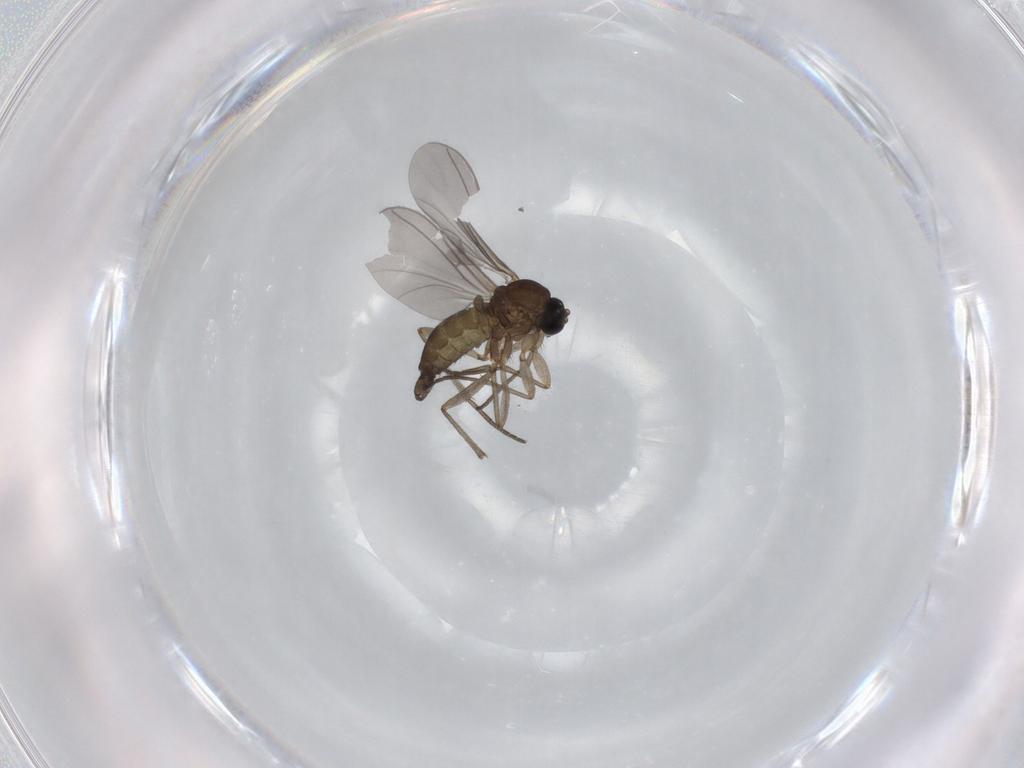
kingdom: Animalia
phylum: Arthropoda
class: Insecta
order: Diptera
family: Sciaridae
